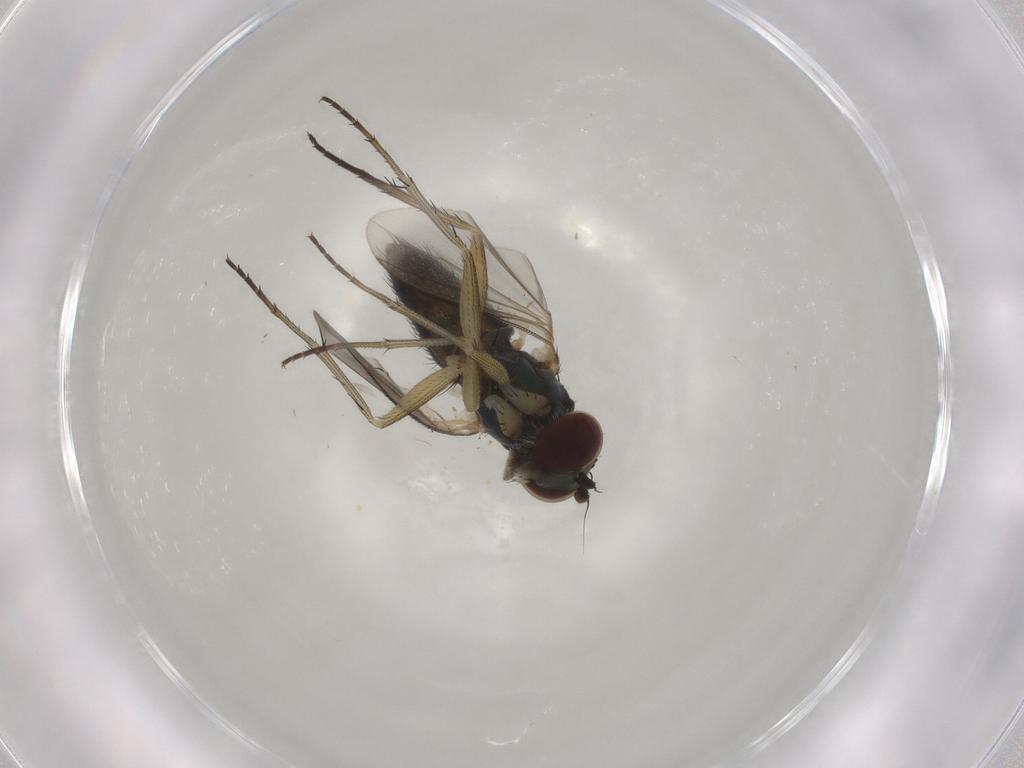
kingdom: Animalia
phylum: Arthropoda
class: Insecta
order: Diptera
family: Dolichopodidae
